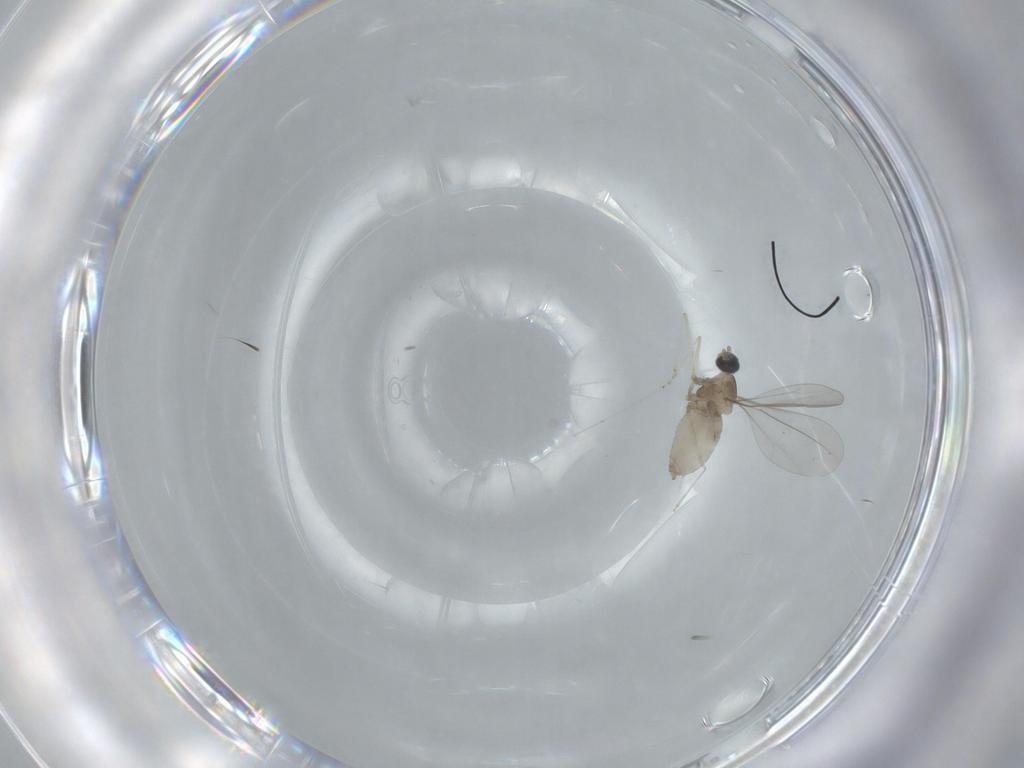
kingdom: Animalia
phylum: Arthropoda
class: Insecta
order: Diptera
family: Cecidomyiidae
